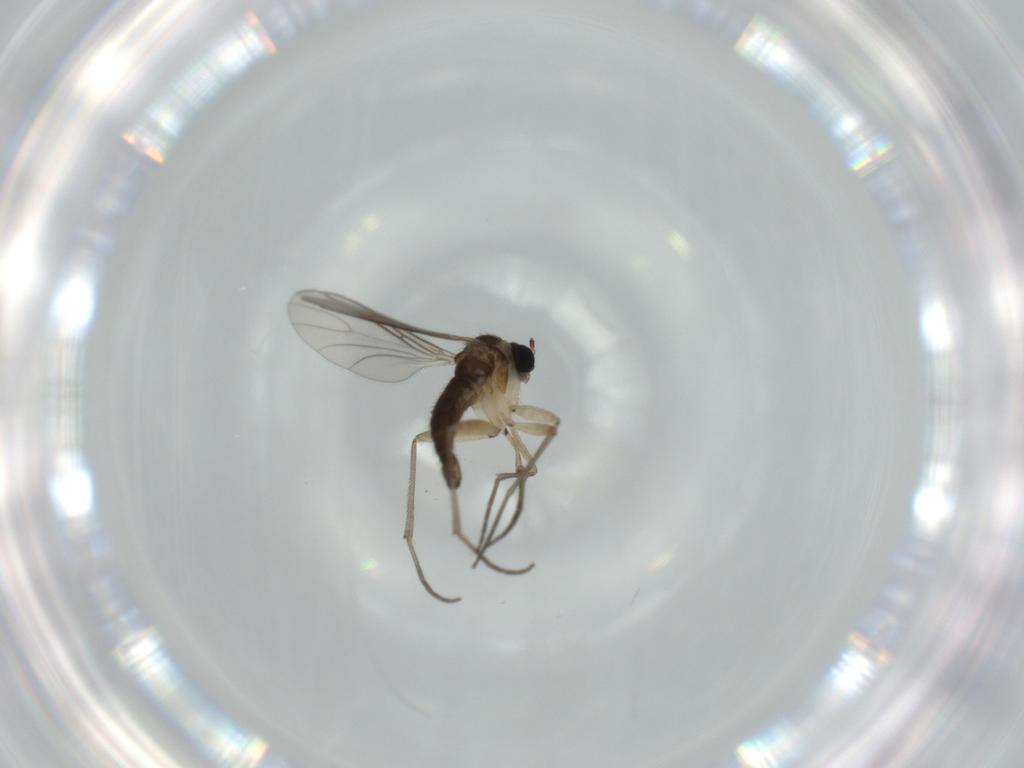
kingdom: Animalia
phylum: Arthropoda
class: Insecta
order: Diptera
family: Sciaridae
